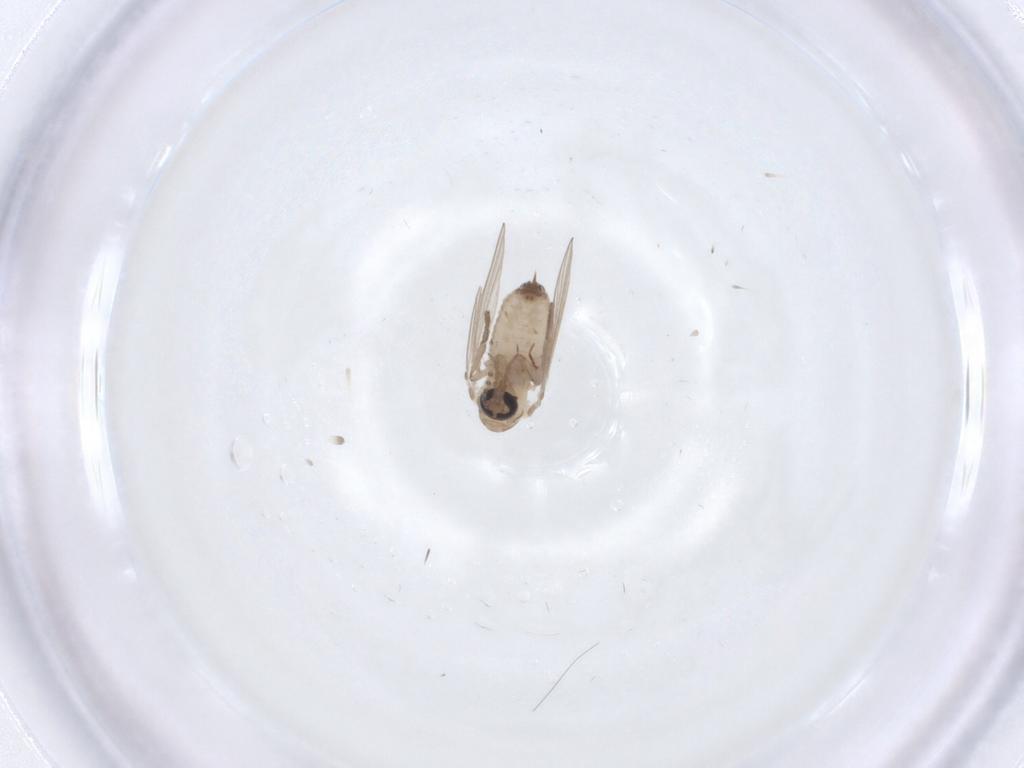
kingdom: Animalia
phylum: Arthropoda
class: Insecta
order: Diptera
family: Psychodidae
